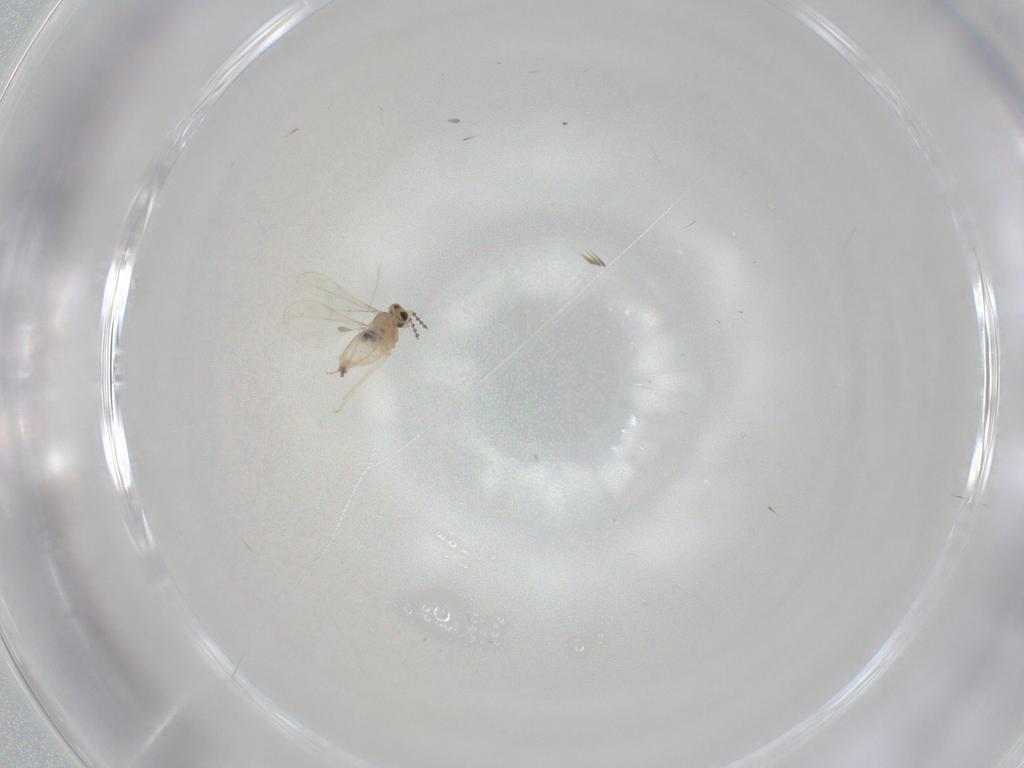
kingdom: Animalia
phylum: Arthropoda
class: Insecta
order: Diptera
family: Cecidomyiidae
